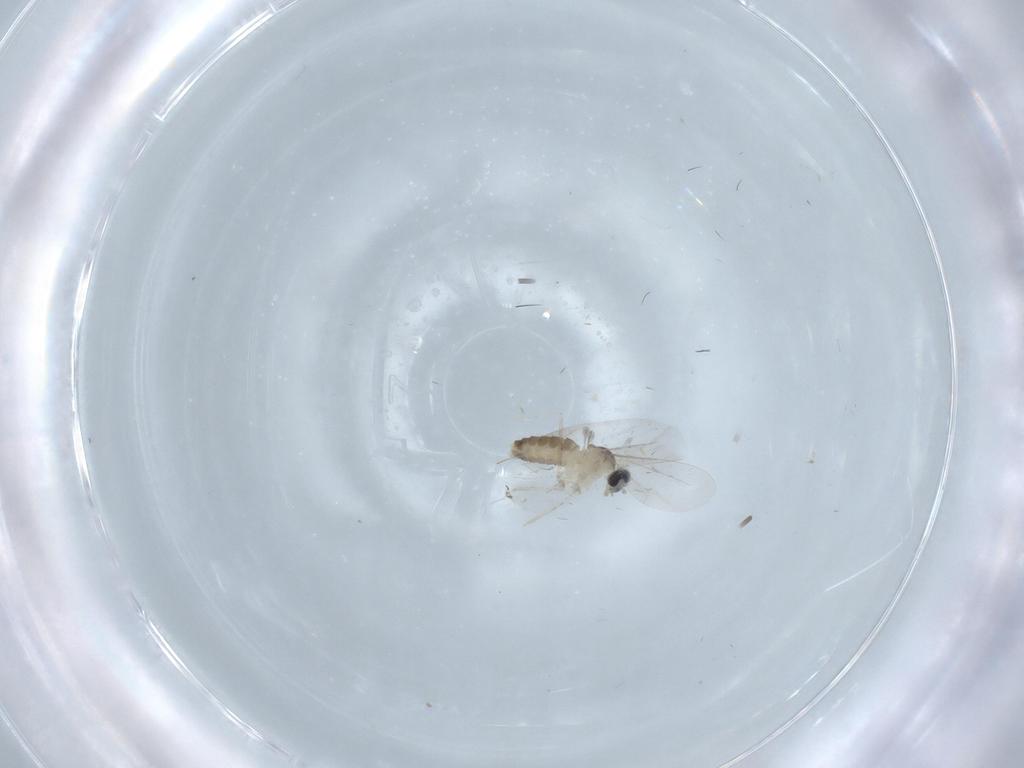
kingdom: Animalia
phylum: Arthropoda
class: Insecta
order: Diptera
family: Cecidomyiidae
